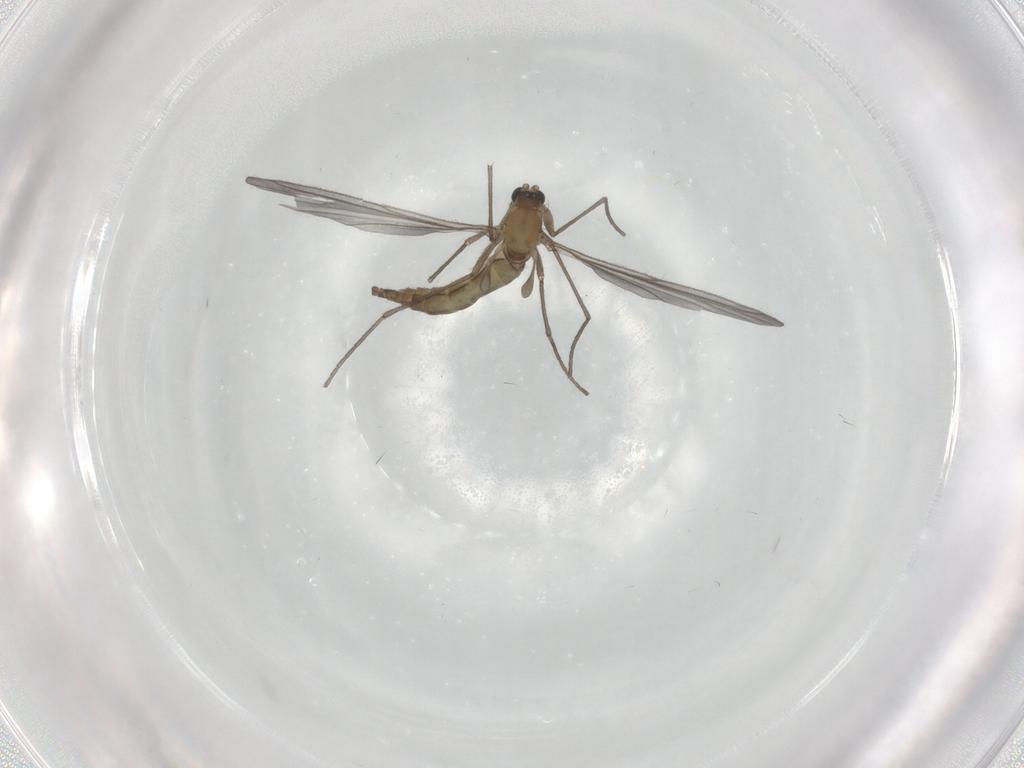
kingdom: Animalia
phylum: Arthropoda
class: Insecta
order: Diptera
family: Sciaridae
